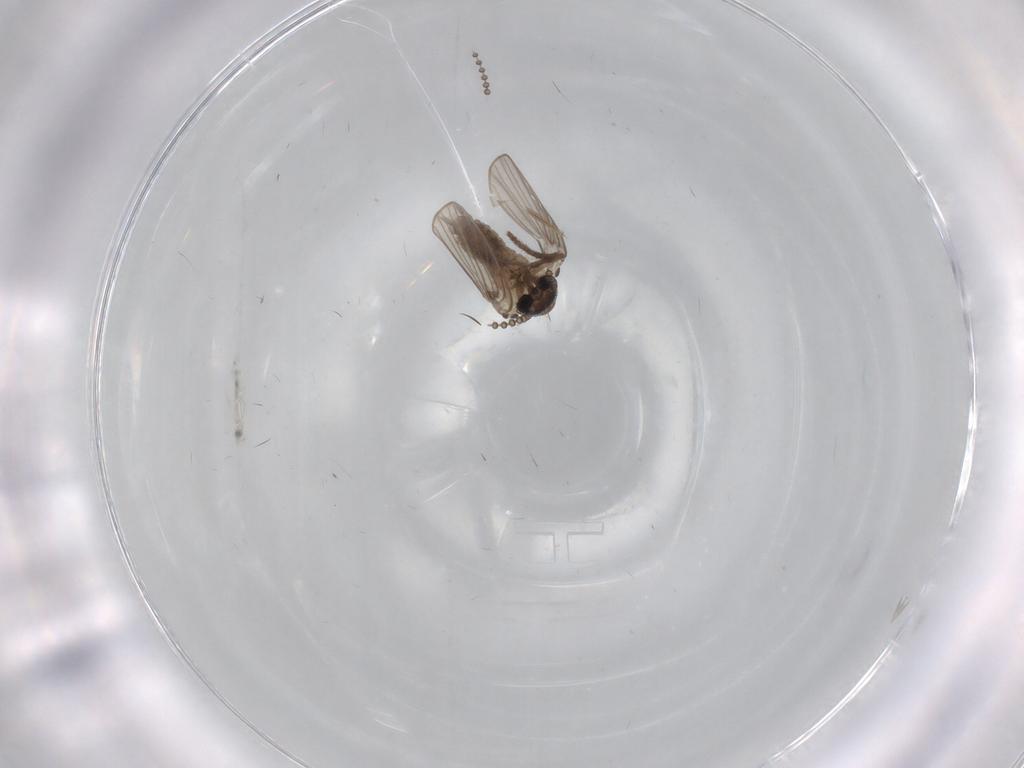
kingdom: Animalia
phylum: Arthropoda
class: Insecta
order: Diptera
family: Psychodidae
